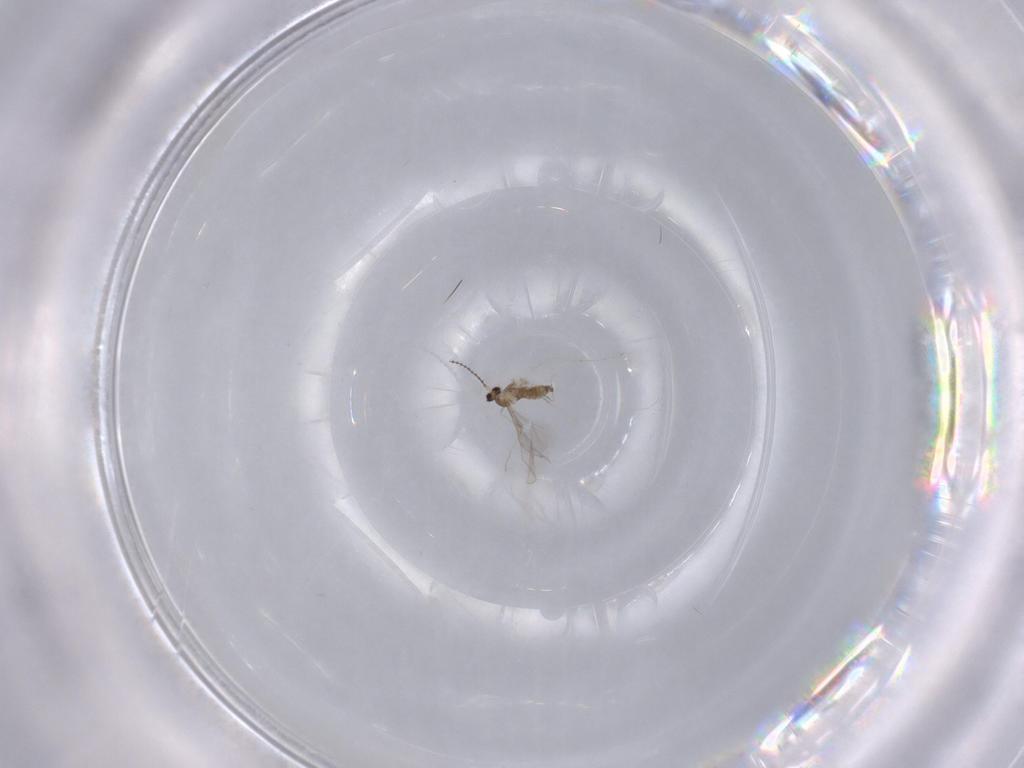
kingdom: Animalia
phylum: Arthropoda
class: Insecta
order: Diptera
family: Cecidomyiidae
